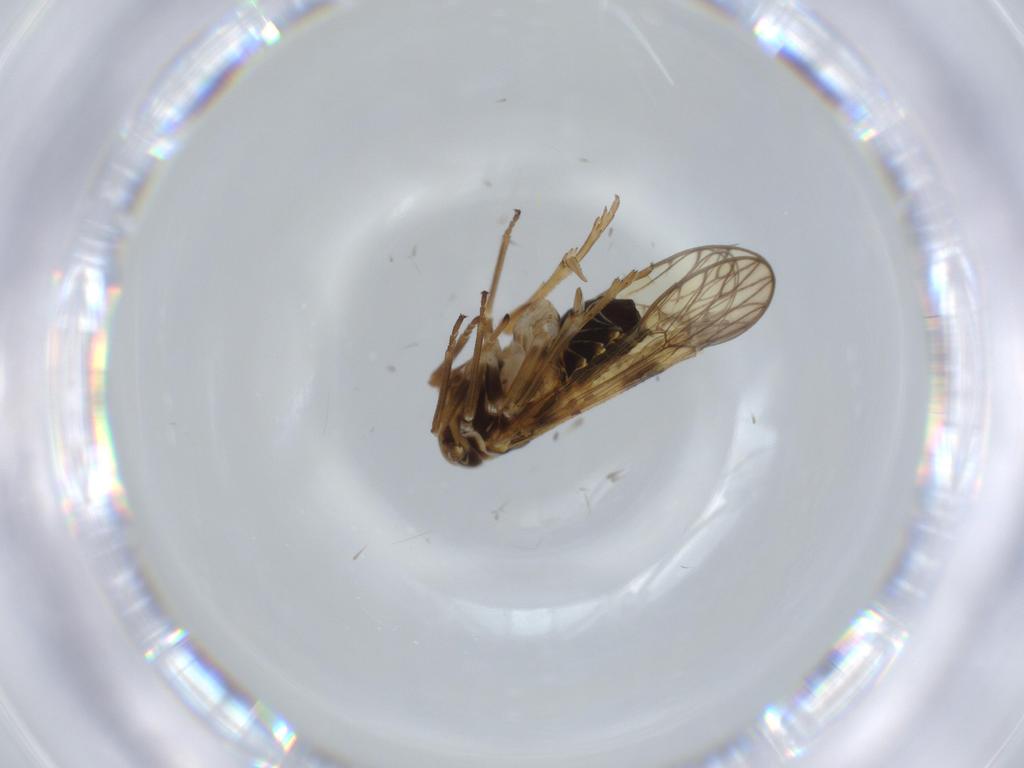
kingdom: Animalia
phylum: Arthropoda
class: Insecta
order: Hemiptera
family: Delphacidae
